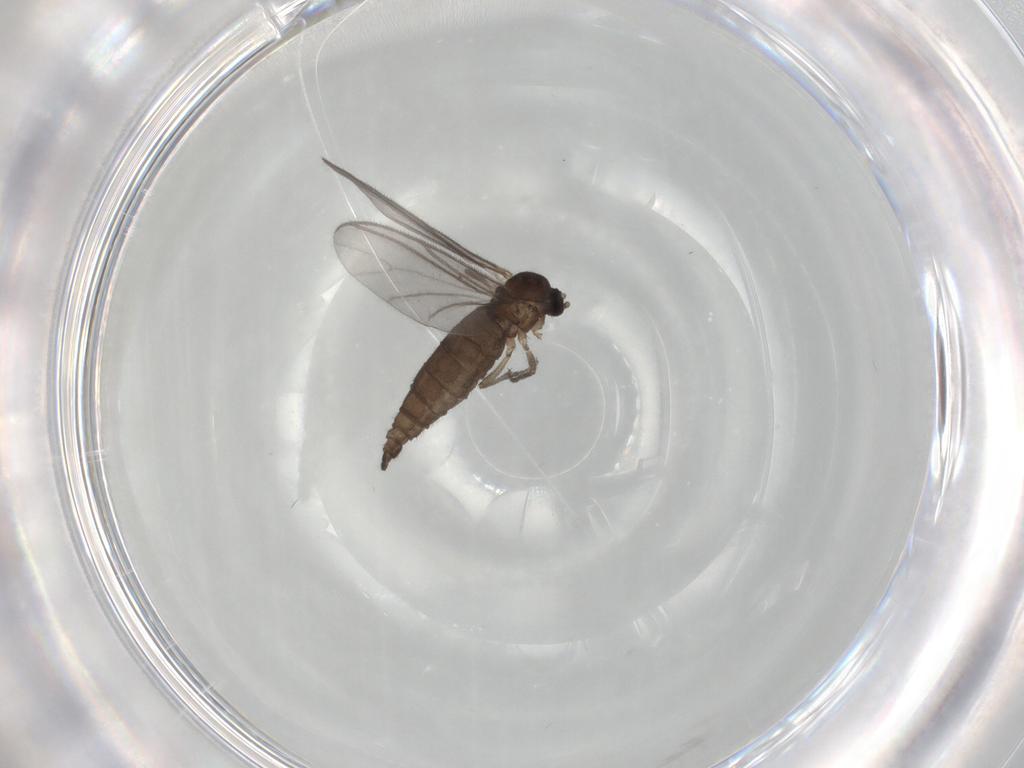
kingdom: Animalia
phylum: Arthropoda
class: Insecta
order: Diptera
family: Sciaridae
